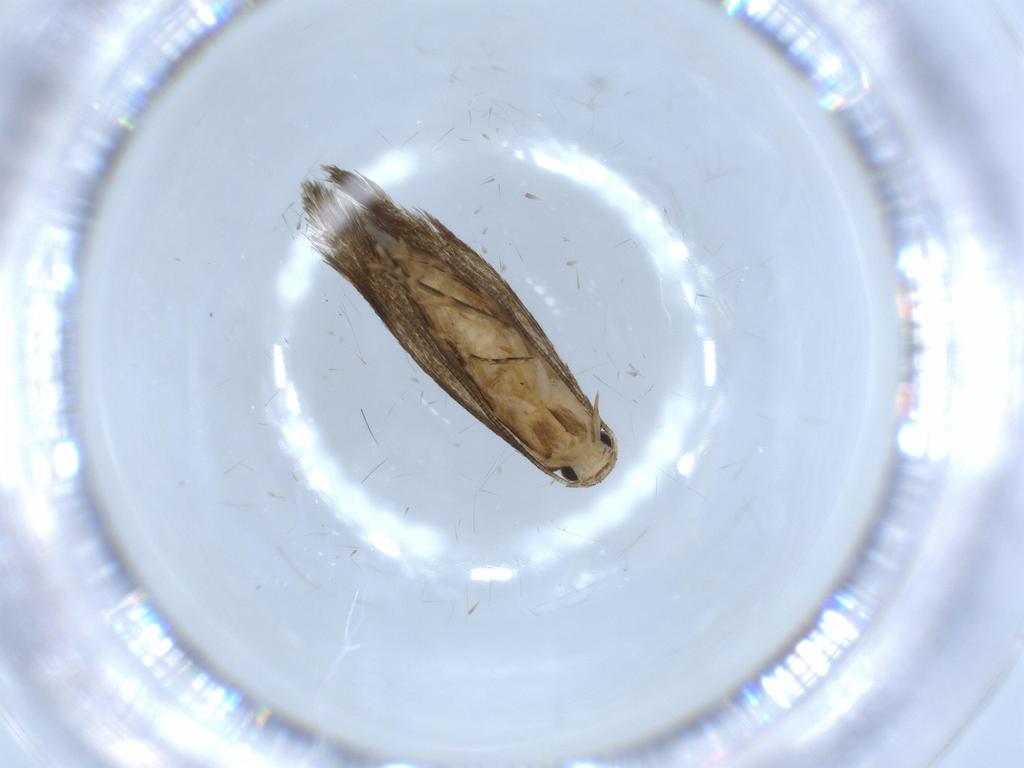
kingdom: Animalia
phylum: Arthropoda
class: Insecta
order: Lepidoptera
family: Tineidae
